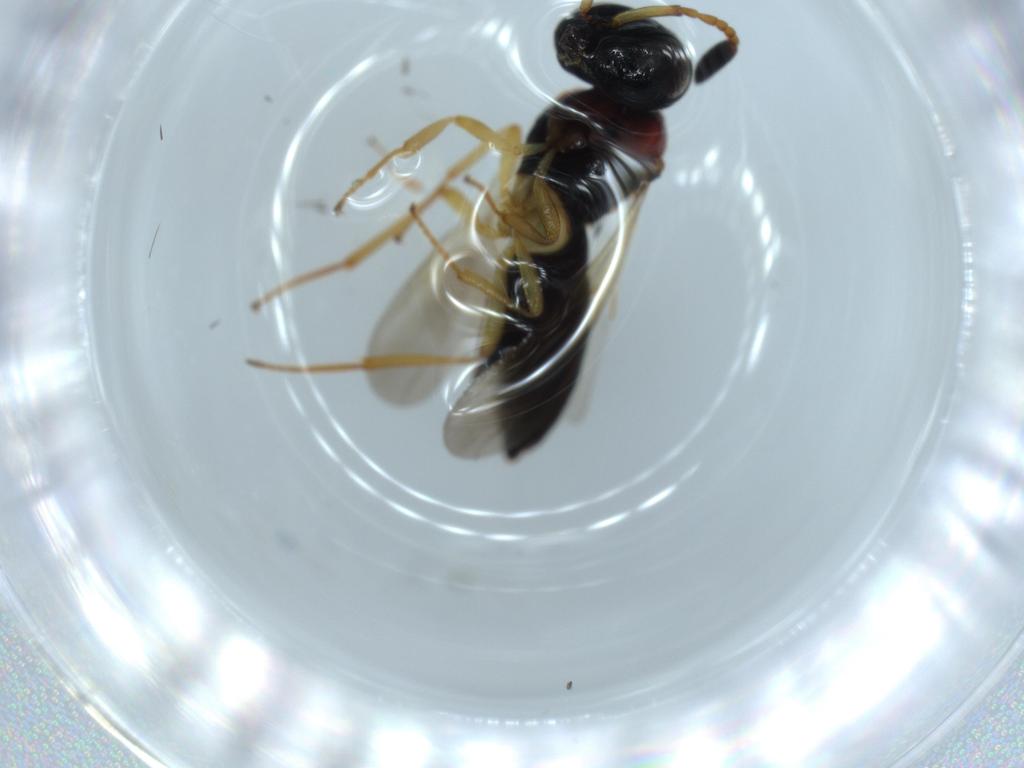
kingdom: Animalia
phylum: Arthropoda
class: Insecta
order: Hymenoptera
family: Scelionidae
